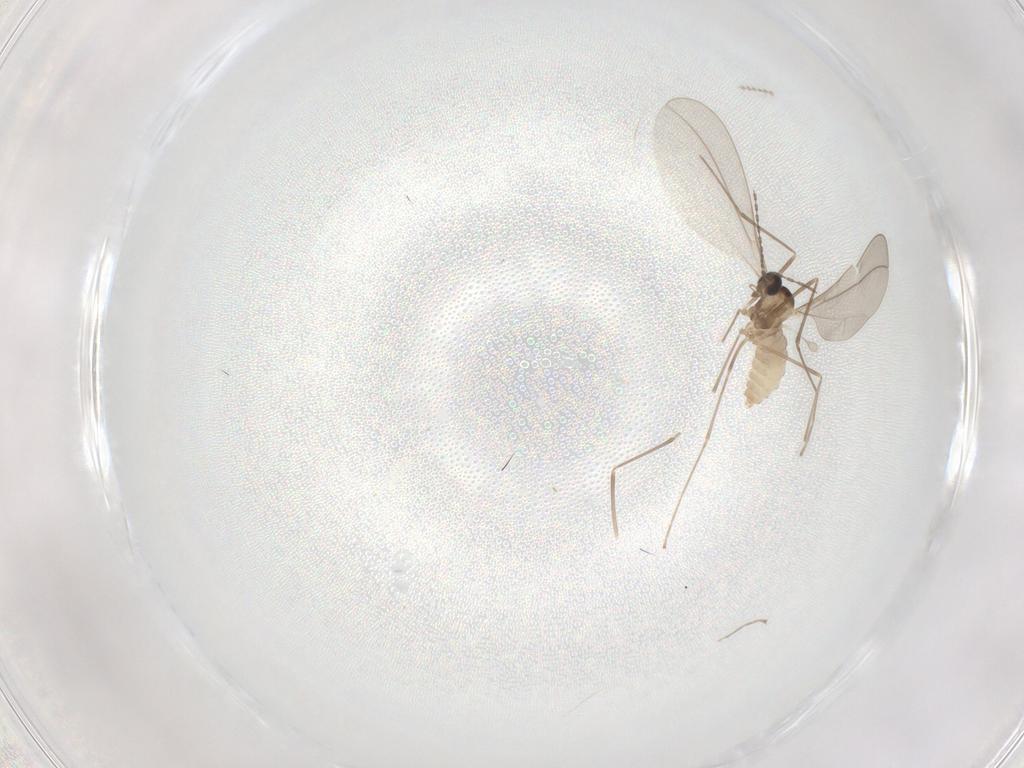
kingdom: Animalia
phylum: Arthropoda
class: Insecta
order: Diptera
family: Cecidomyiidae
